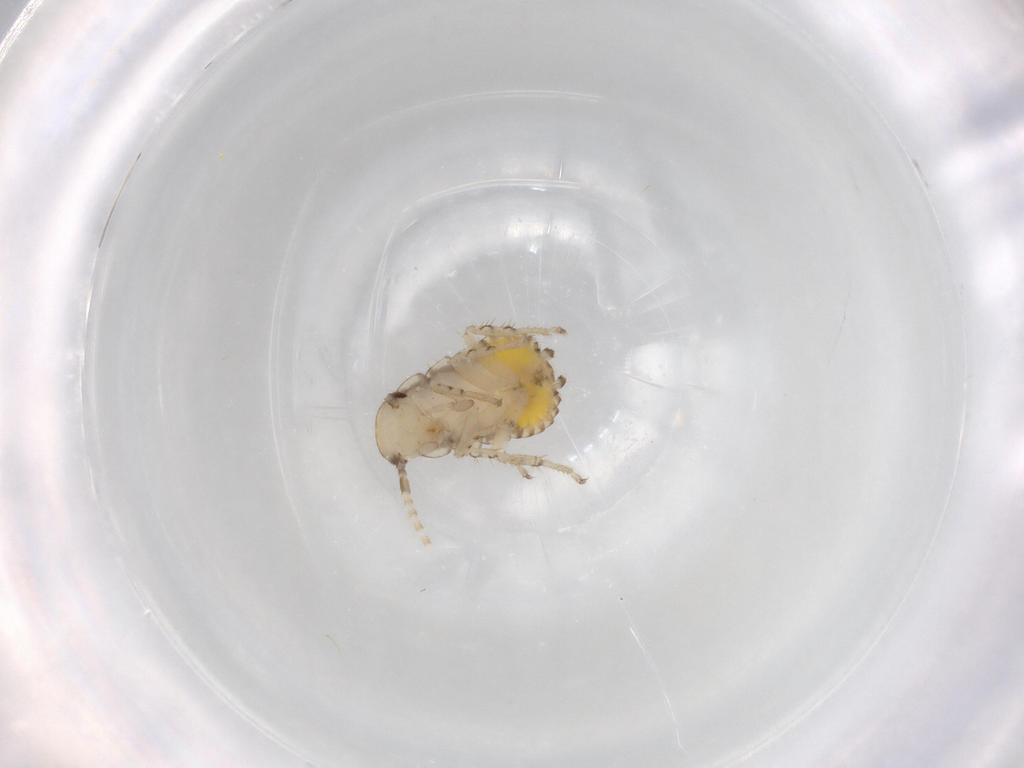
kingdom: Animalia
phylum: Arthropoda
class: Insecta
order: Blattodea
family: Ectobiidae
